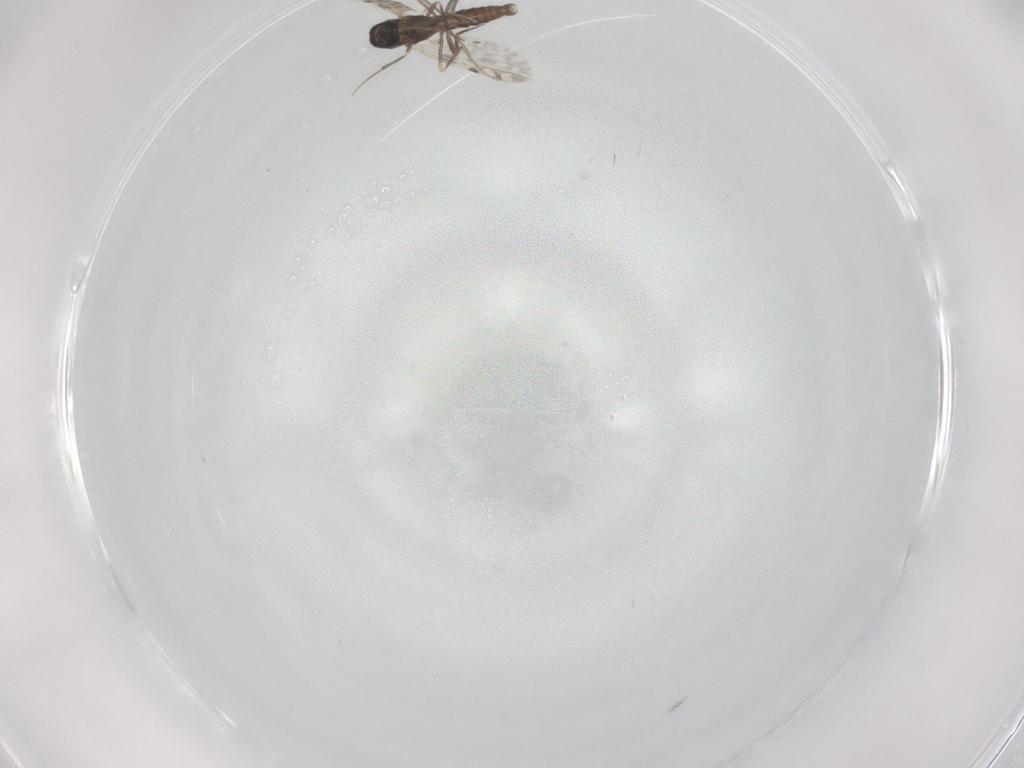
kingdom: Animalia
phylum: Arthropoda
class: Insecta
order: Diptera
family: Ceratopogonidae
